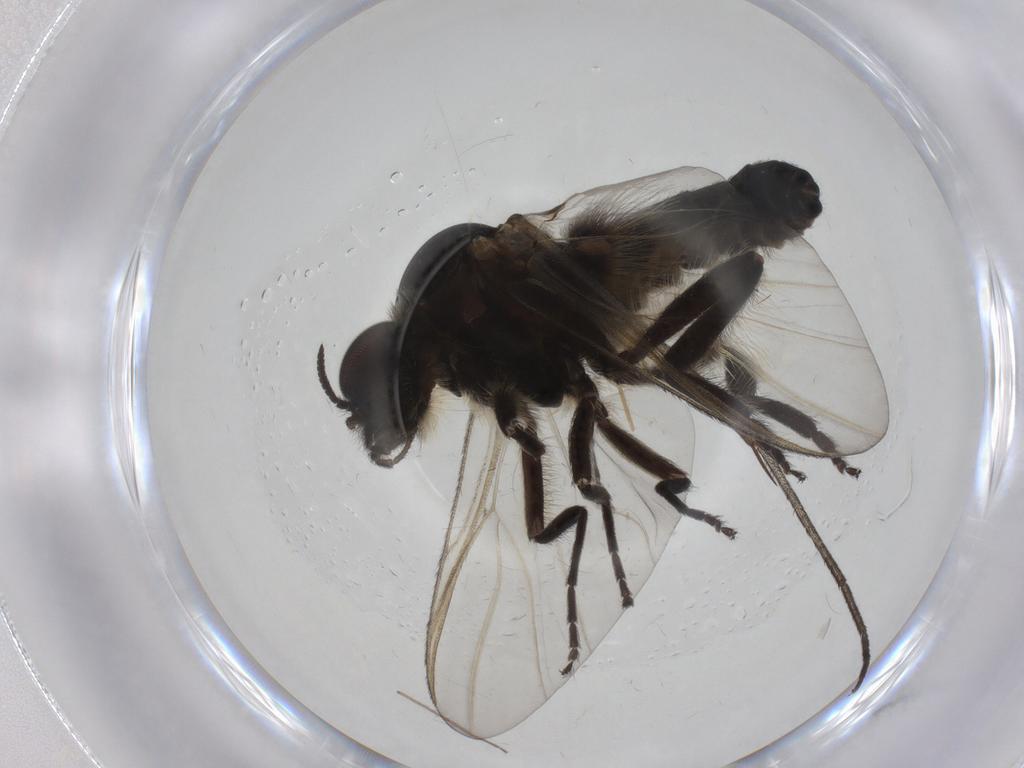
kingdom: Animalia
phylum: Arthropoda
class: Insecta
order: Diptera
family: Simuliidae
